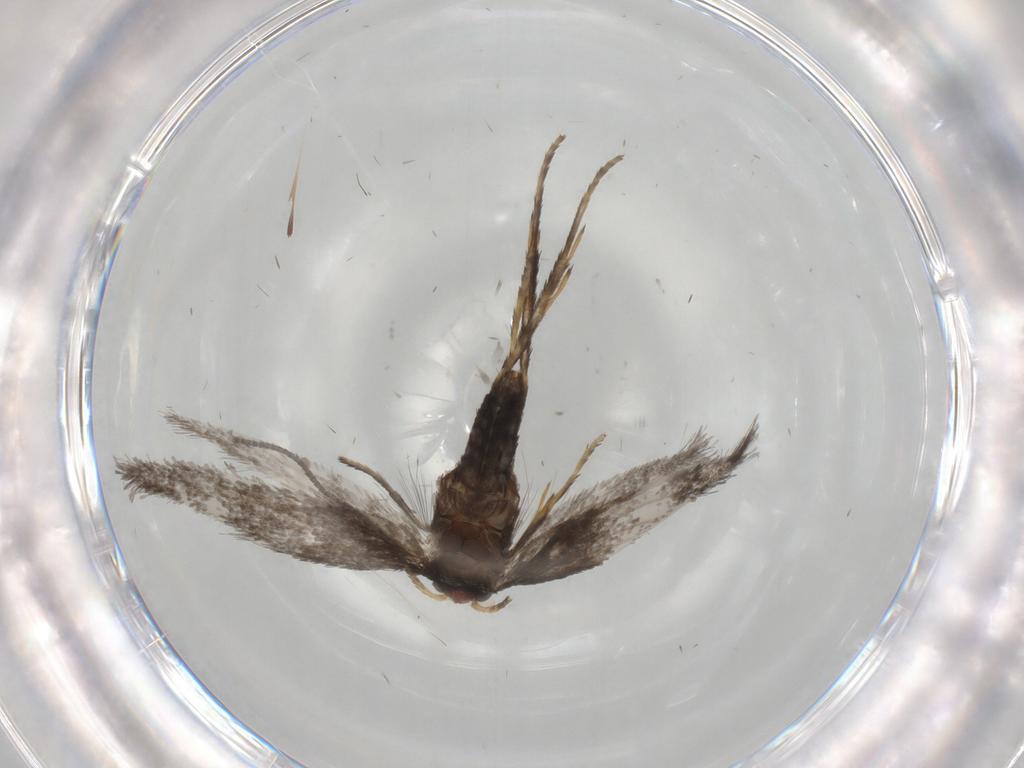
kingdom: Animalia
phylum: Arthropoda
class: Insecta
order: Lepidoptera
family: Nepticulidae
